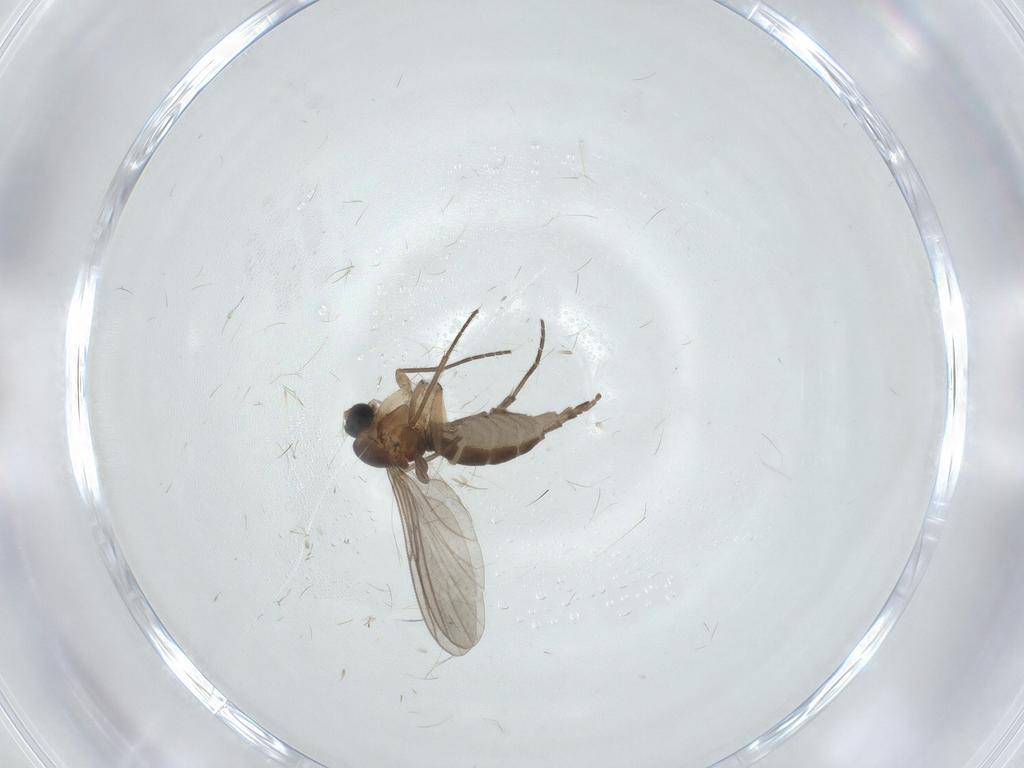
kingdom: Animalia
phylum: Arthropoda
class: Insecta
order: Diptera
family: Sciaridae
